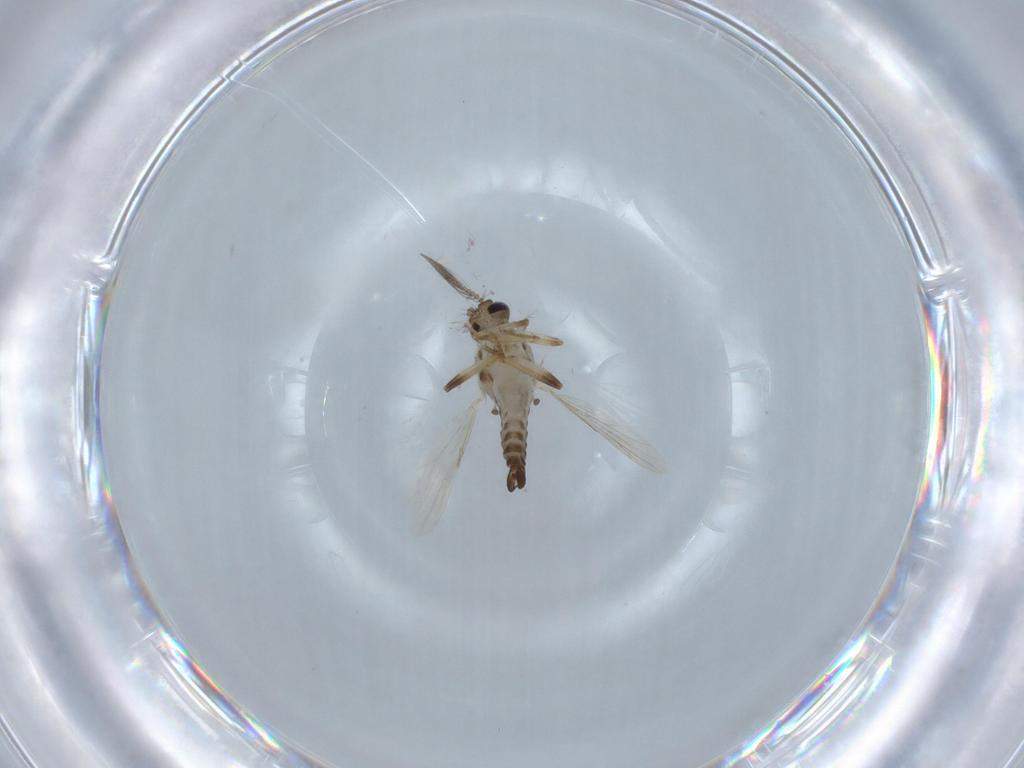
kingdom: Animalia
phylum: Arthropoda
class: Insecta
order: Diptera
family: Ceratopogonidae
